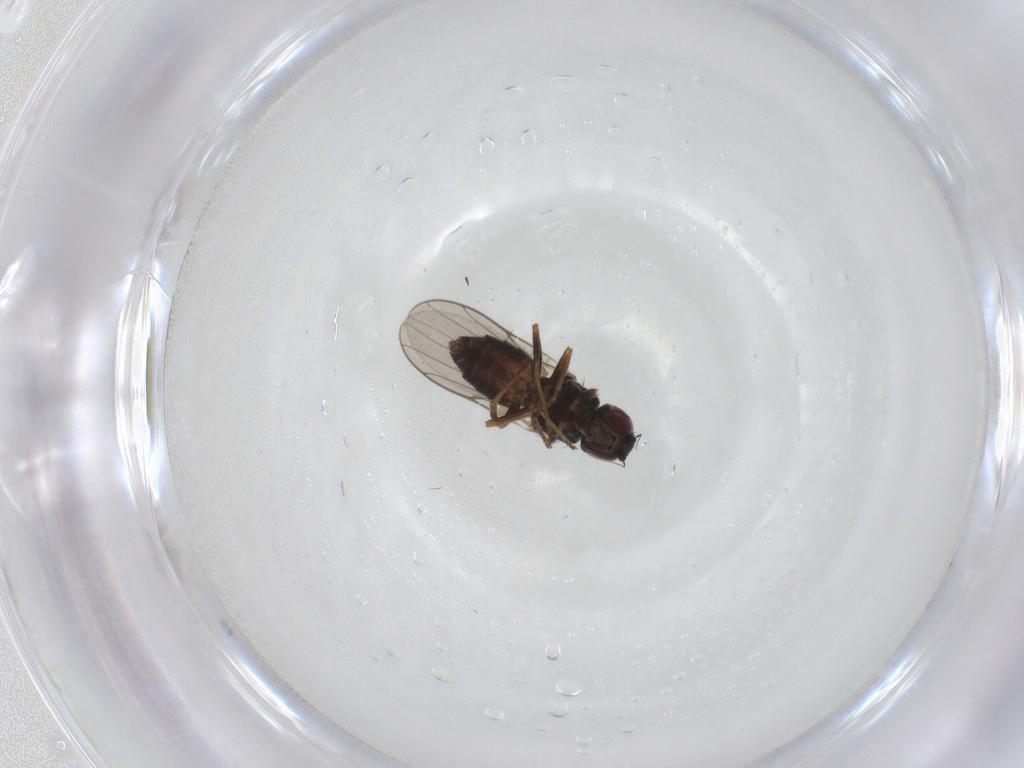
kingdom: Animalia
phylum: Arthropoda
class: Insecta
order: Diptera
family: Chloropidae
